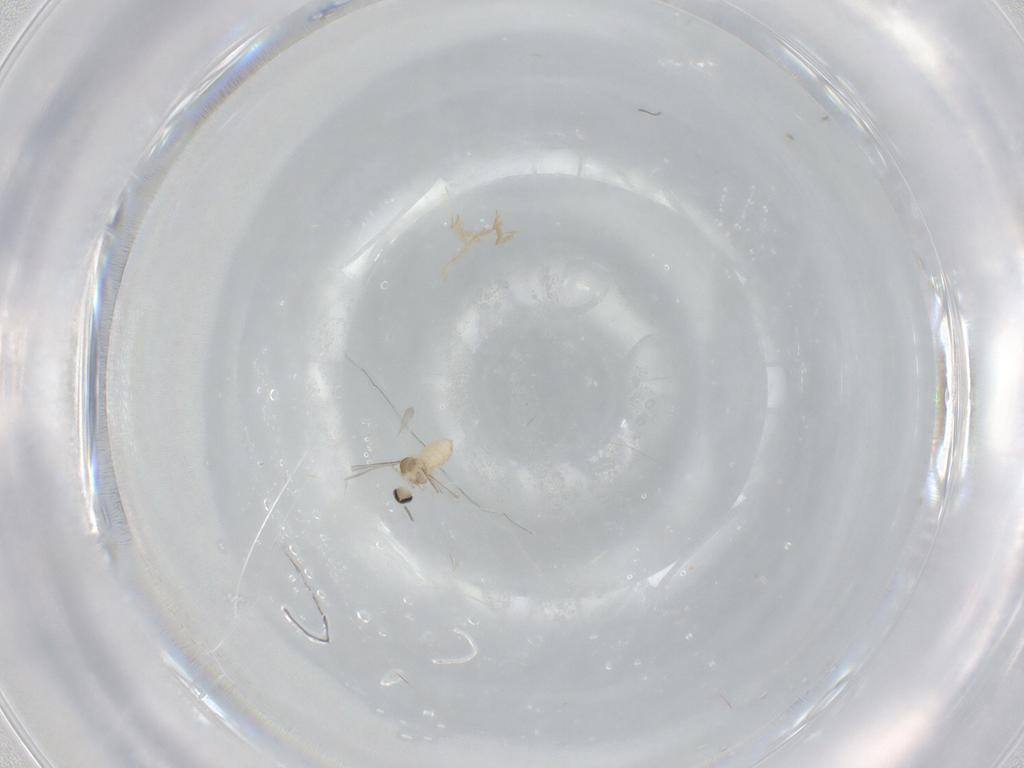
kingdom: Animalia
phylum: Arthropoda
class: Insecta
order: Diptera
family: Cecidomyiidae
